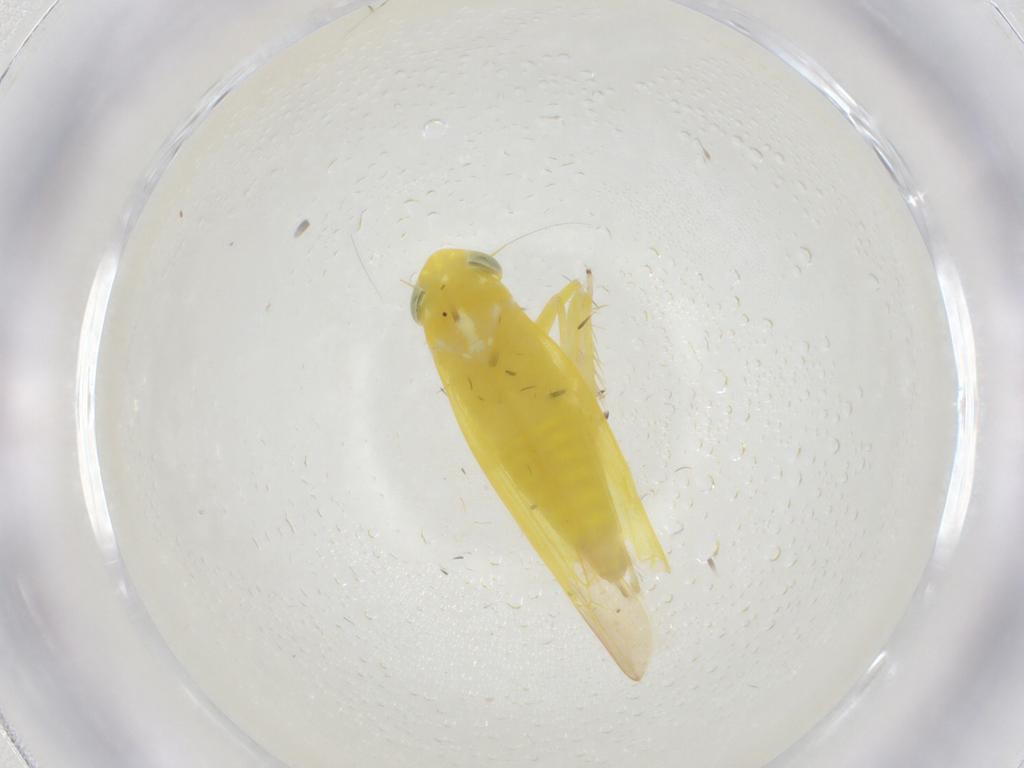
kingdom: Animalia
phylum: Arthropoda
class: Insecta
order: Hemiptera
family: Cicadellidae
